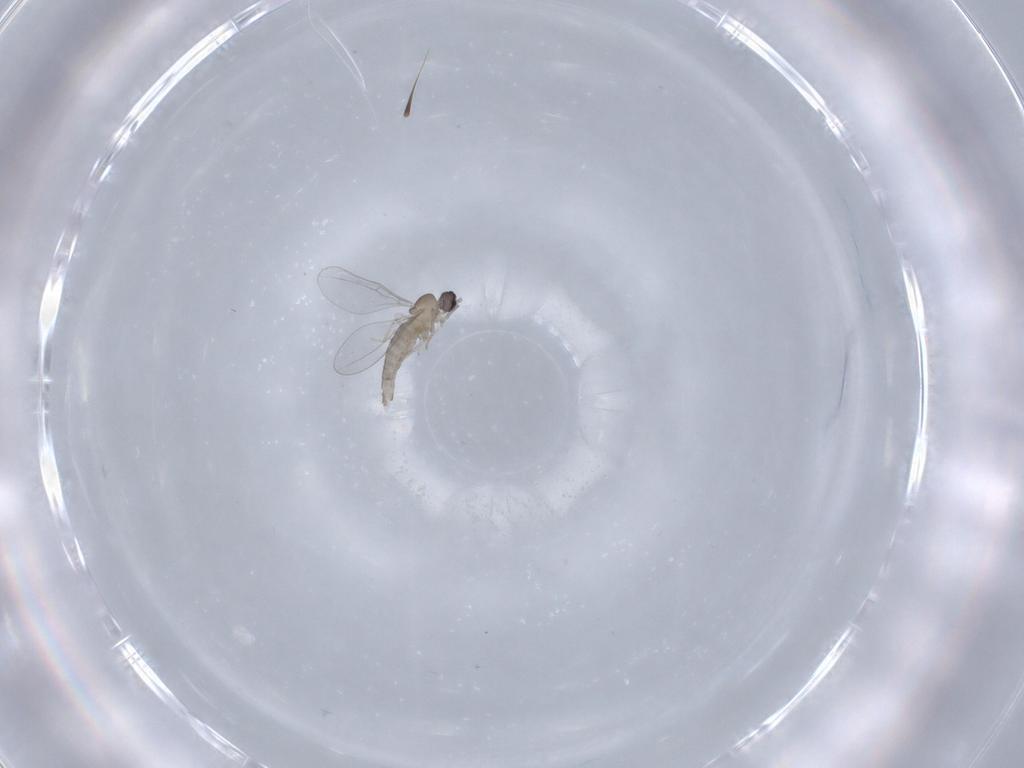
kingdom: Animalia
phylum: Arthropoda
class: Insecta
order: Diptera
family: Cecidomyiidae
